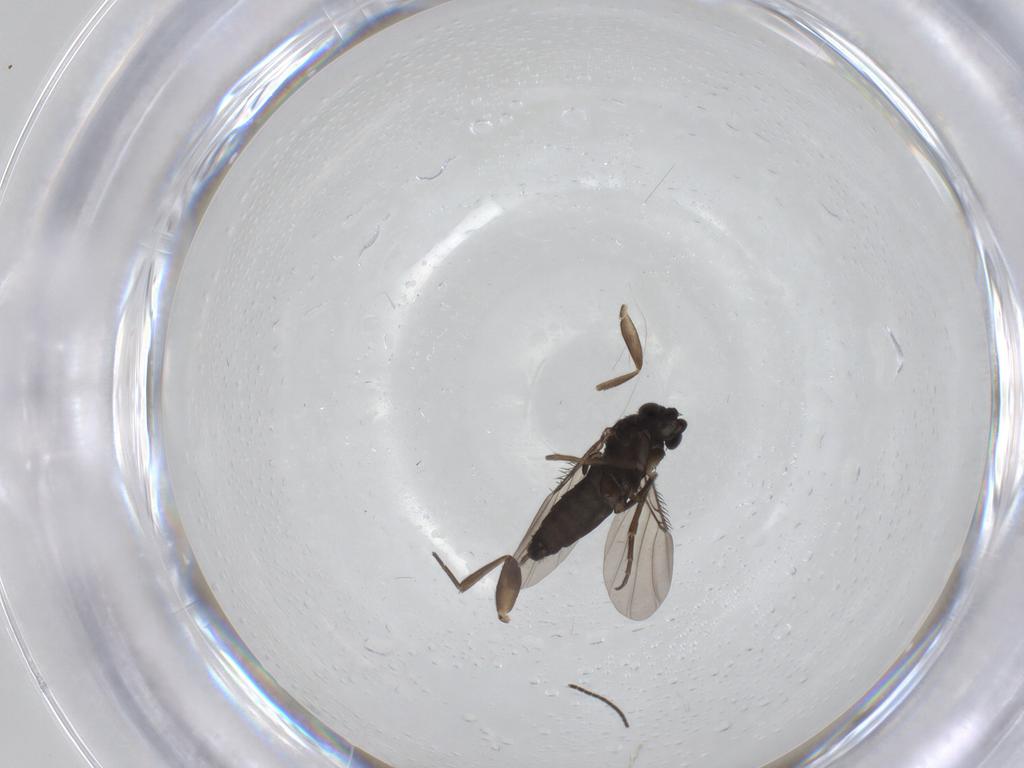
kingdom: Animalia
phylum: Arthropoda
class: Insecta
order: Diptera
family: Phoridae
